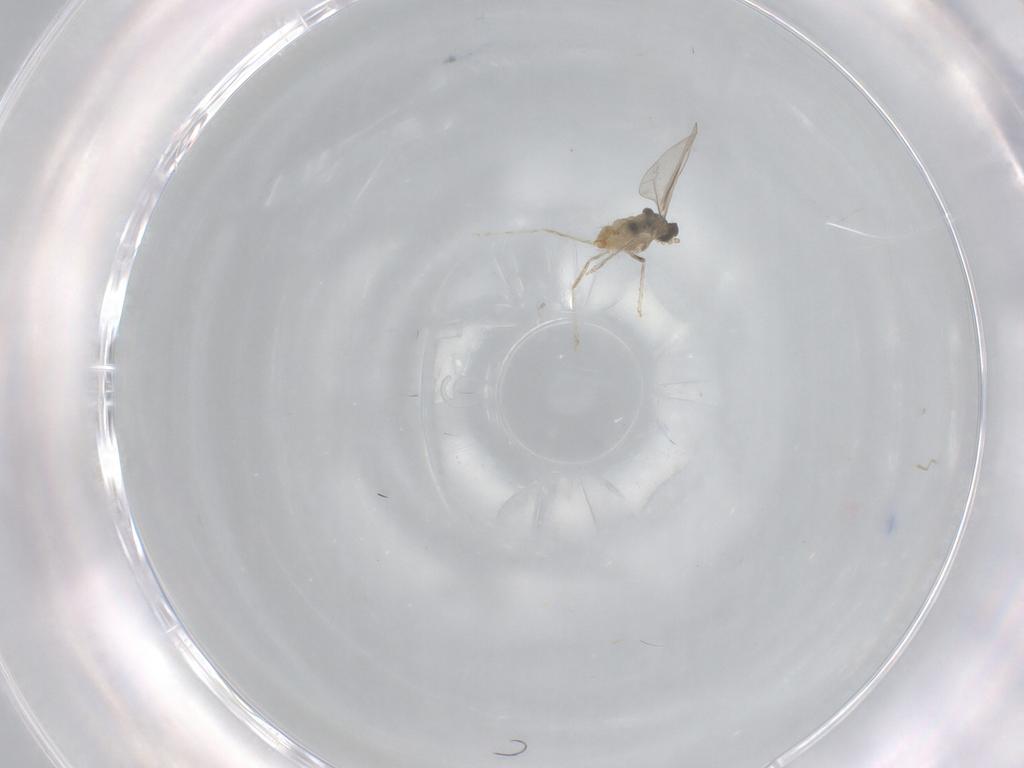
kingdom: Animalia
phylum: Arthropoda
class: Insecta
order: Diptera
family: Cecidomyiidae
